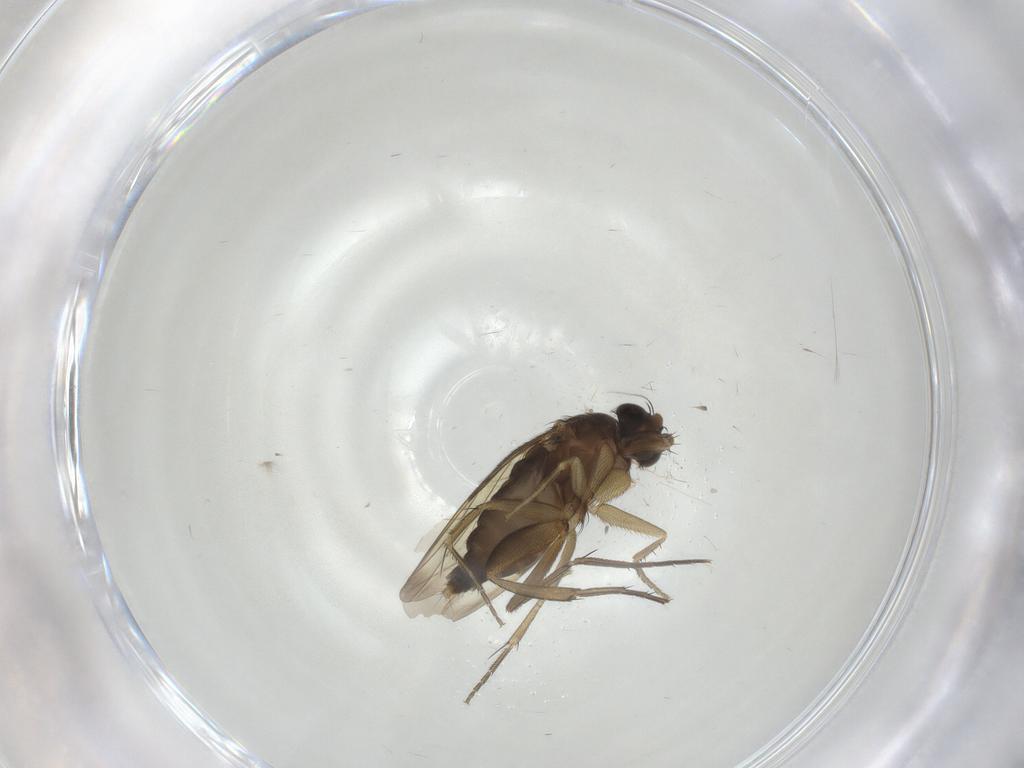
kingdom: Animalia
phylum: Arthropoda
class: Insecta
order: Diptera
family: Phoridae
